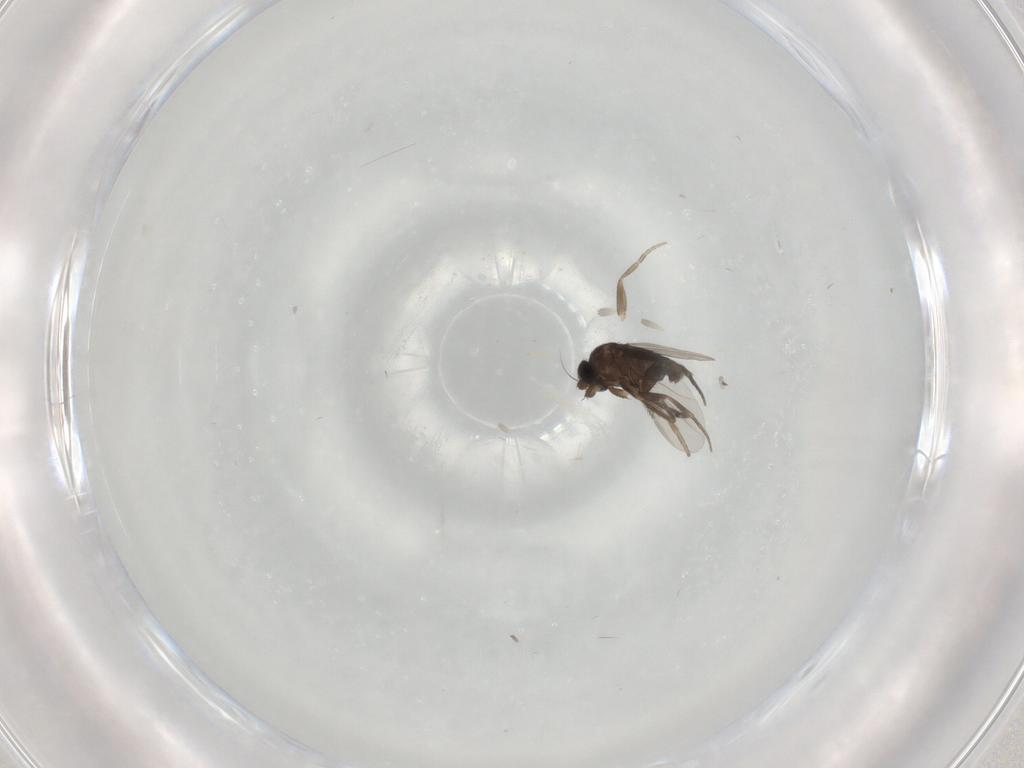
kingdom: Animalia
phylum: Arthropoda
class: Insecta
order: Diptera
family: Phoridae
